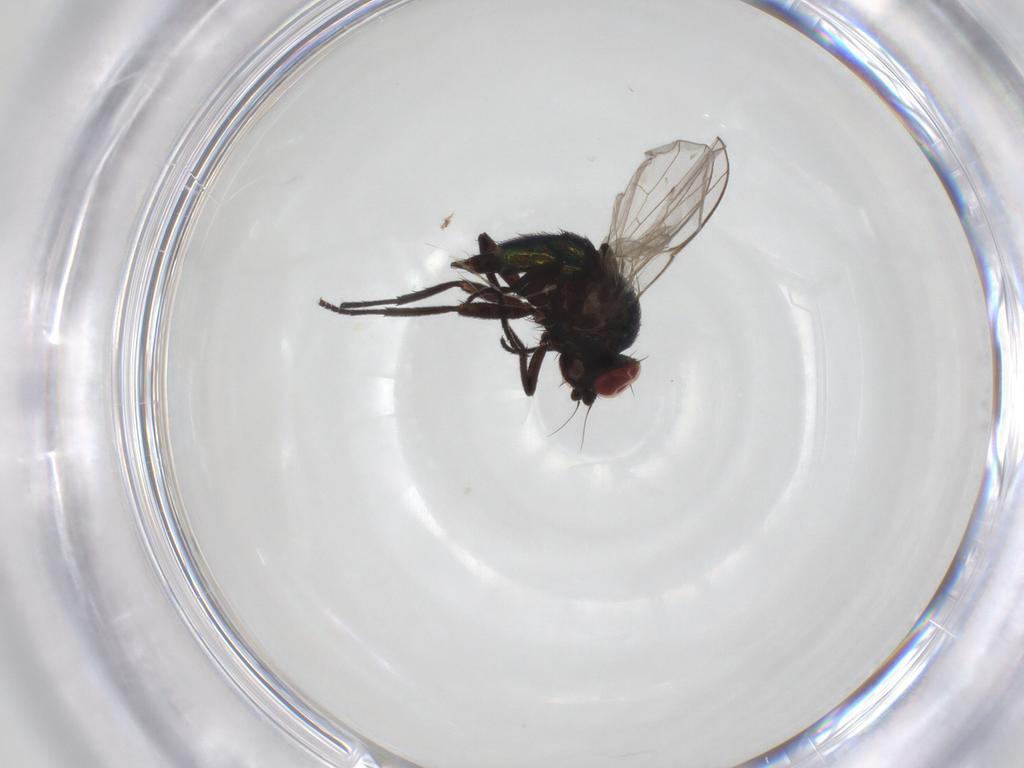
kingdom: Animalia
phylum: Arthropoda
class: Insecta
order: Diptera
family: Agromyzidae
